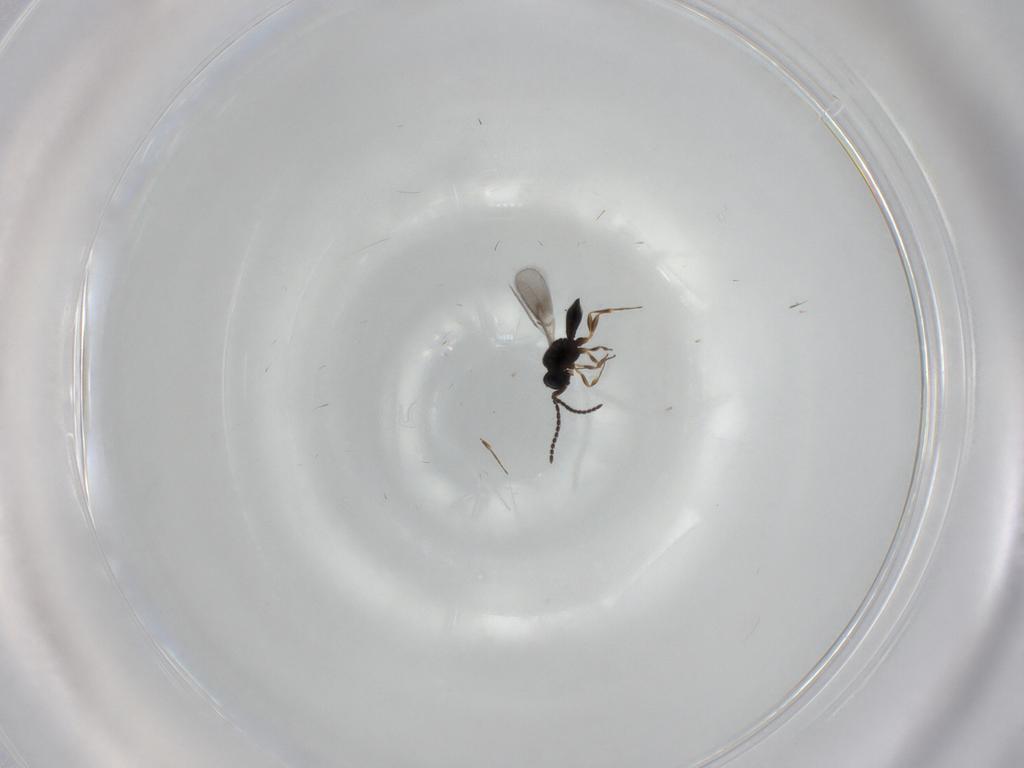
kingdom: Animalia
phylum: Arthropoda
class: Insecta
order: Hymenoptera
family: Scelionidae
